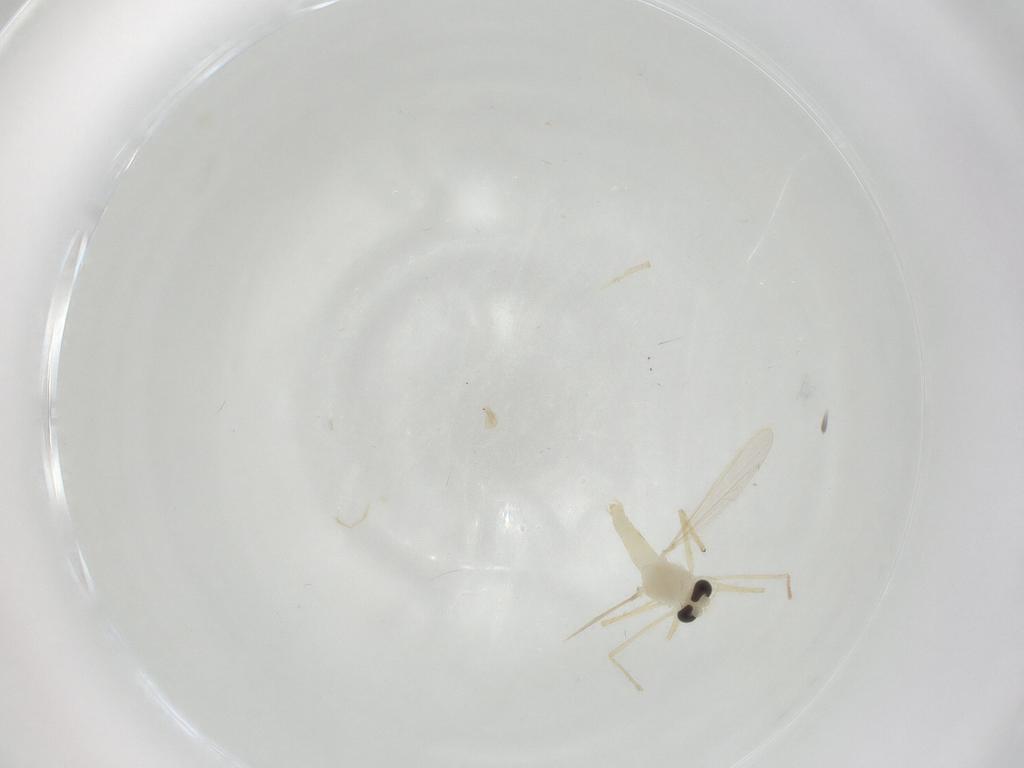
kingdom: Animalia
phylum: Arthropoda
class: Insecta
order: Diptera
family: Chironomidae
